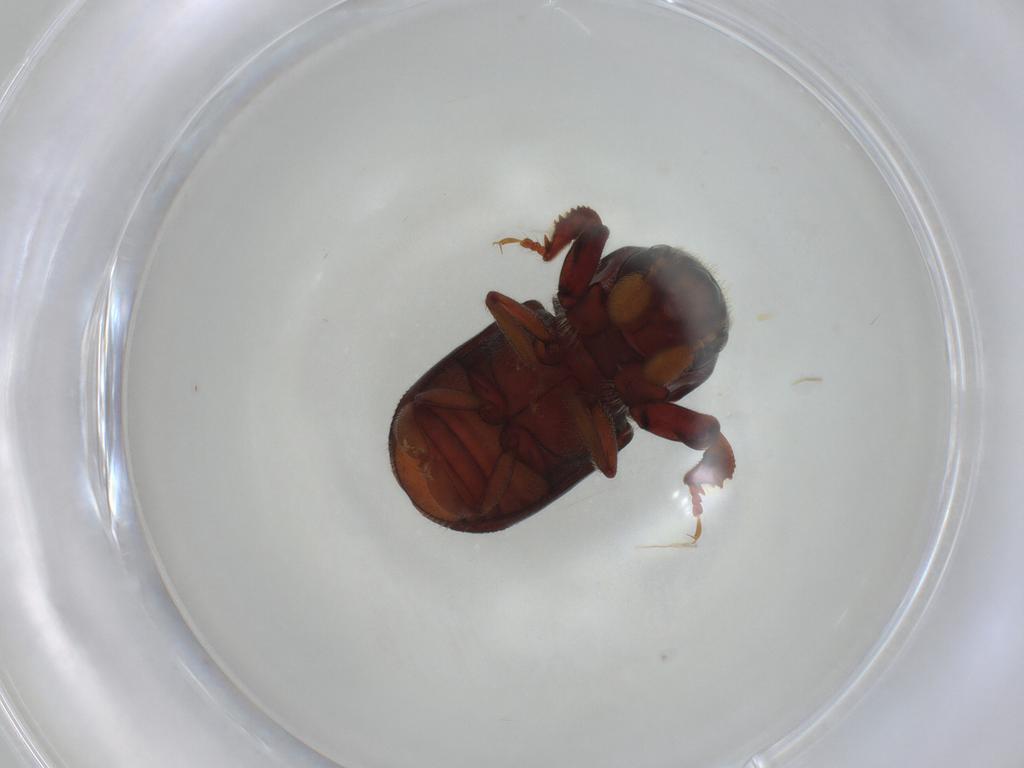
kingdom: Animalia
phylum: Arthropoda
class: Insecta
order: Coleoptera
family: Curculionidae
